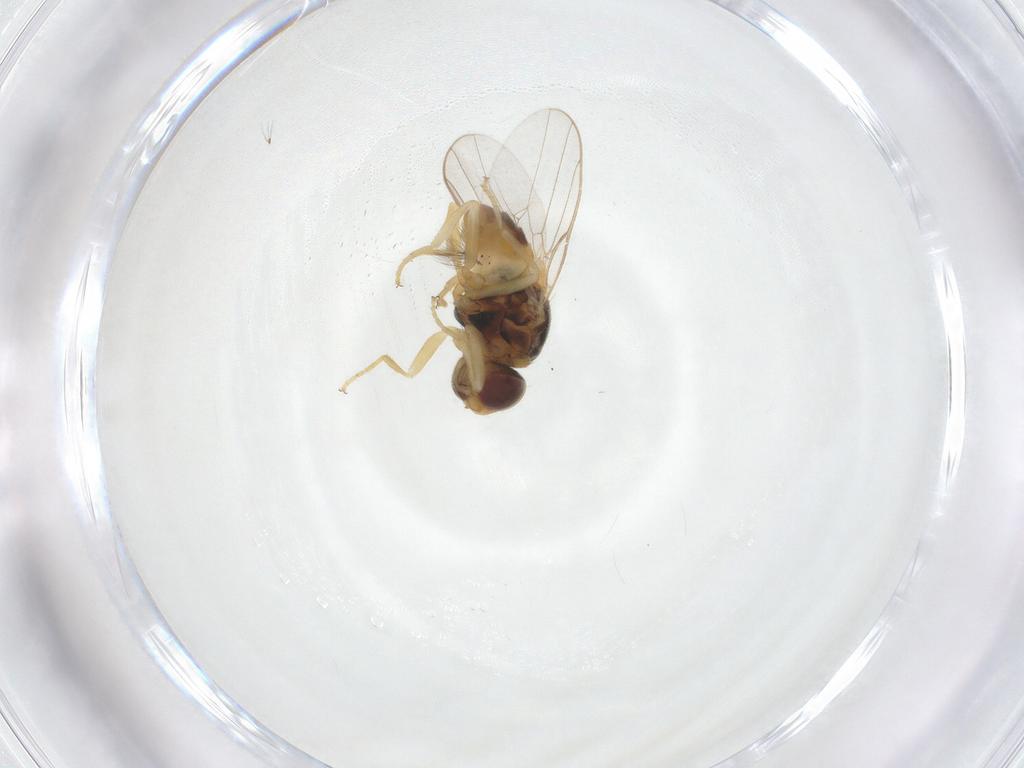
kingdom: Animalia
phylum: Arthropoda
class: Insecta
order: Diptera
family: Chloropidae
